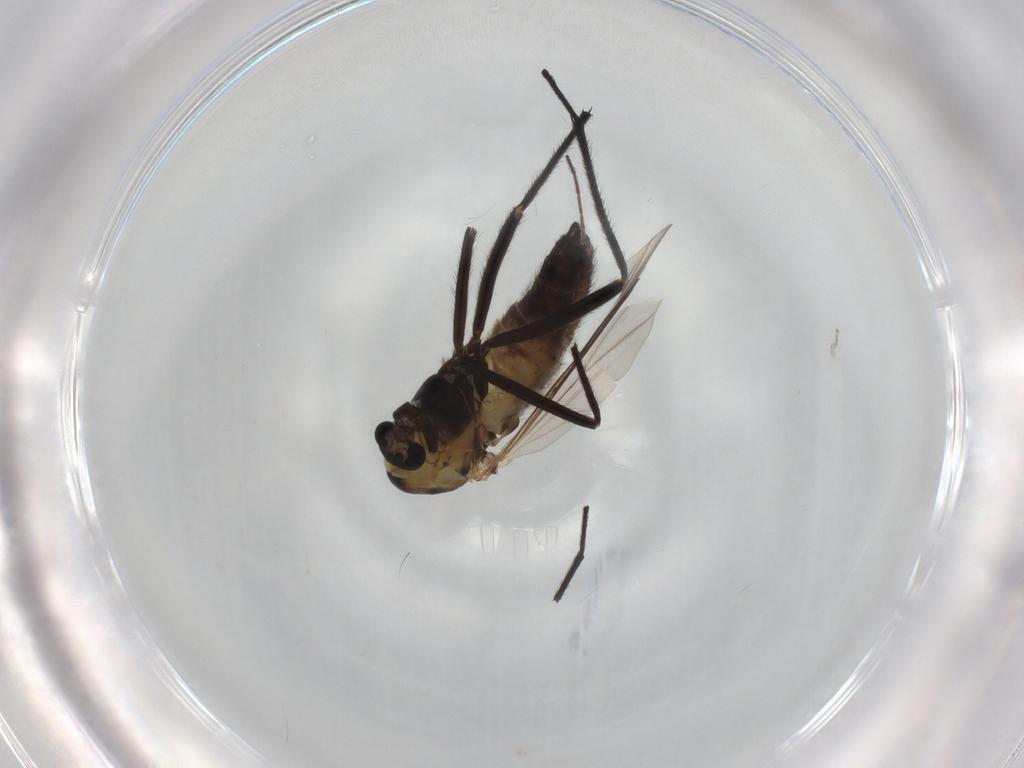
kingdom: Animalia
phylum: Arthropoda
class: Insecta
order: Diptera
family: Chironomidae
